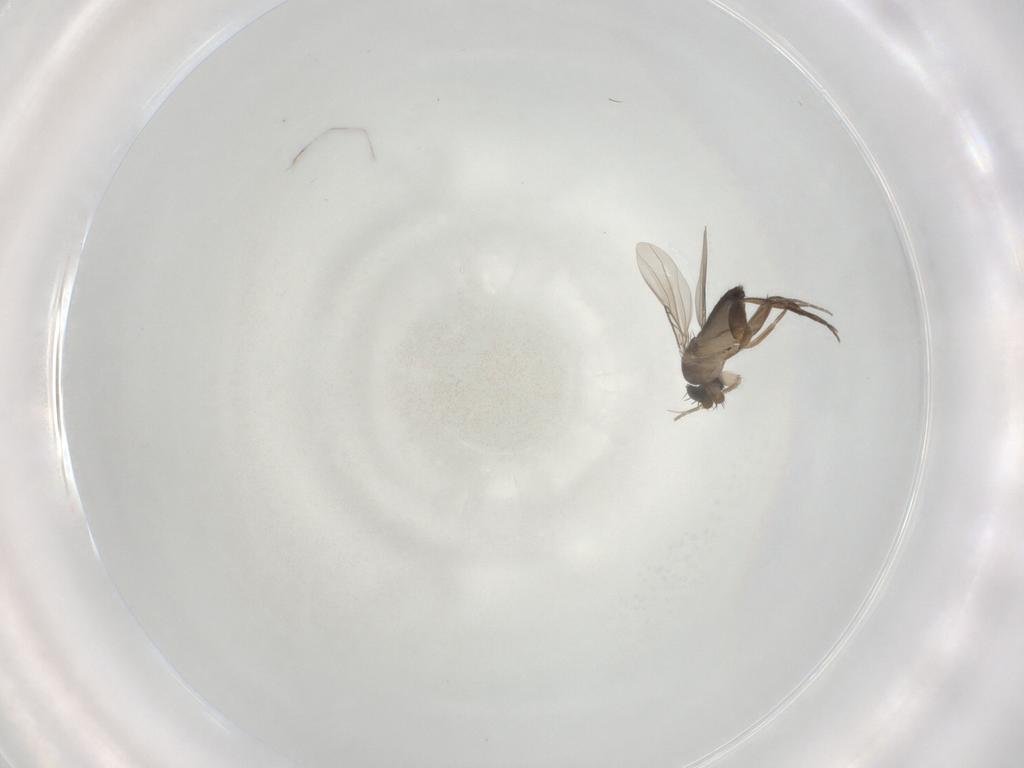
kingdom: Animalia
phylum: Arthropoda
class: Insecta
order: Diptera
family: Phoridae
